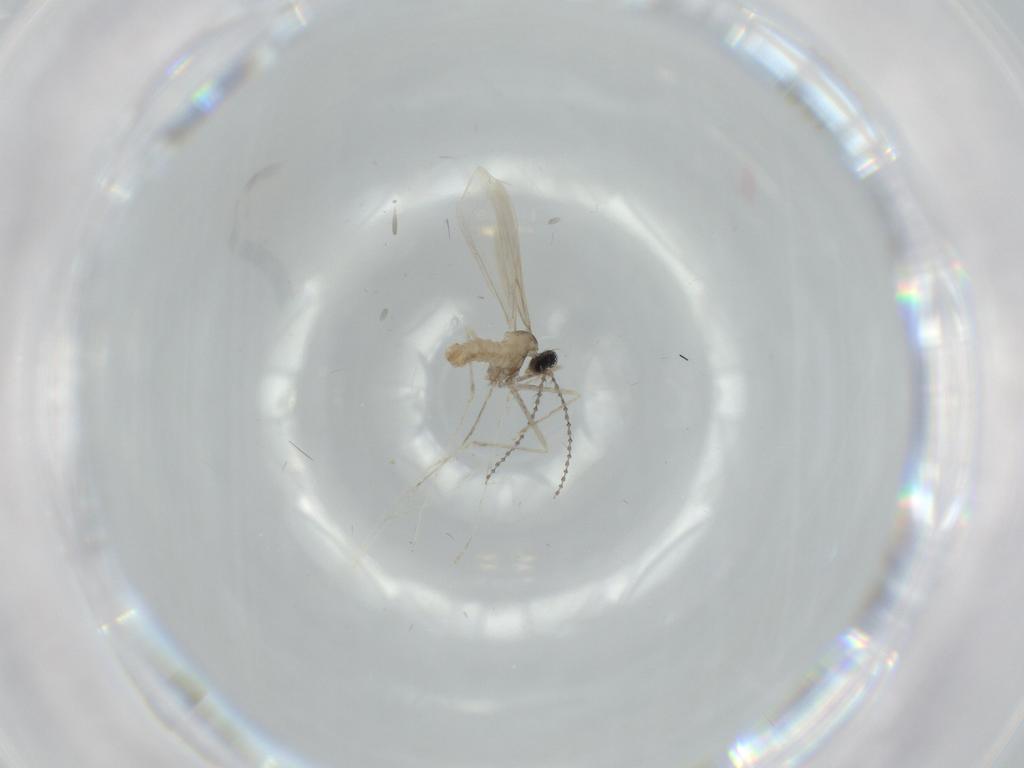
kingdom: Animalia
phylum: Arthropoda
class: Insecta
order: Diptera
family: Cecidomyiidae
